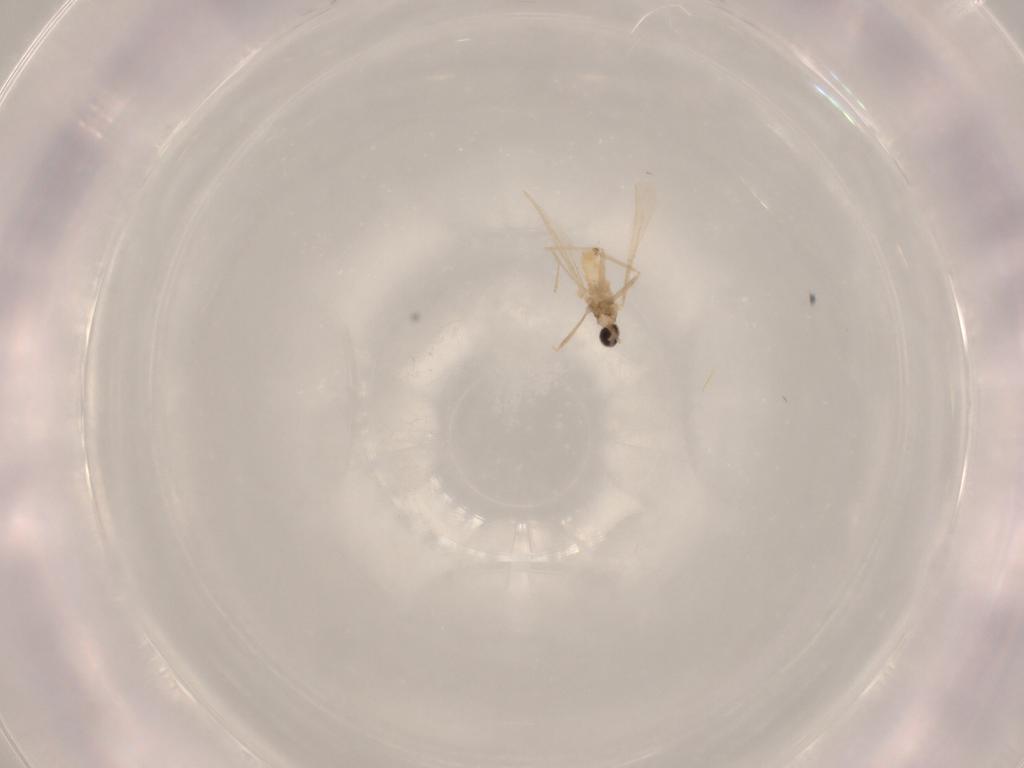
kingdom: Animalia
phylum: Arthropoda
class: Insecta
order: Diptera
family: Cecidomyiidae
